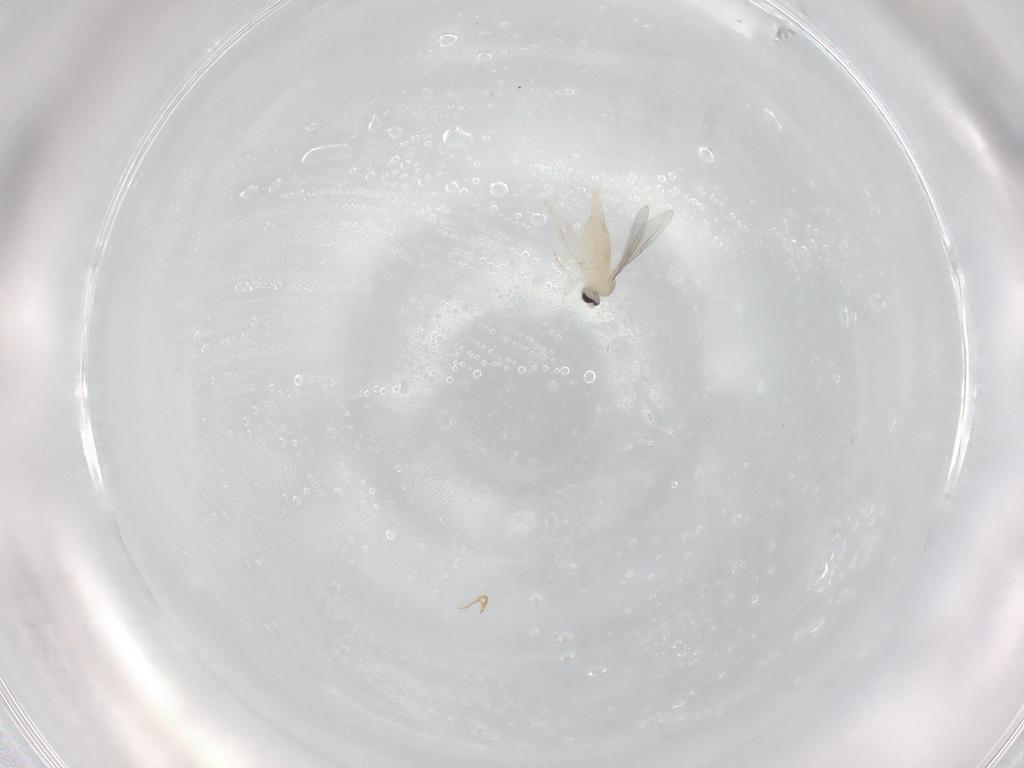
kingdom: Animalia
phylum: Arthropoda
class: Insecta
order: Diptera
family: Cecidomyiidae
